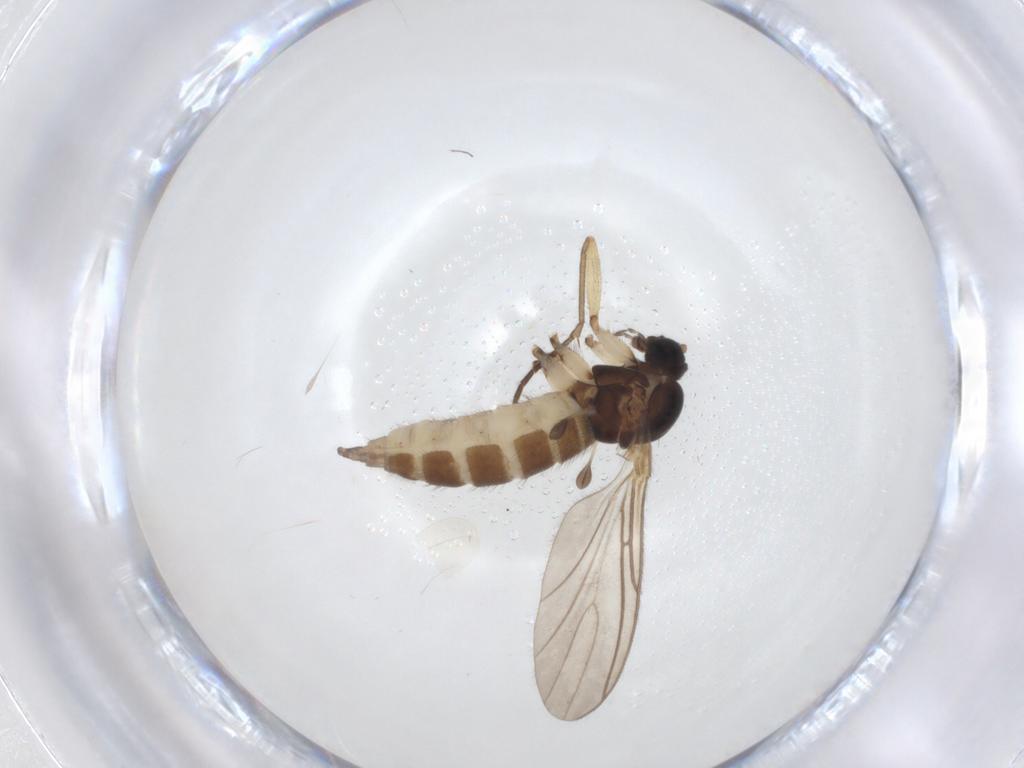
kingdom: Animalia
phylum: Arthropoda
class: Insecta
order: Diptera
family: Sciaridae
